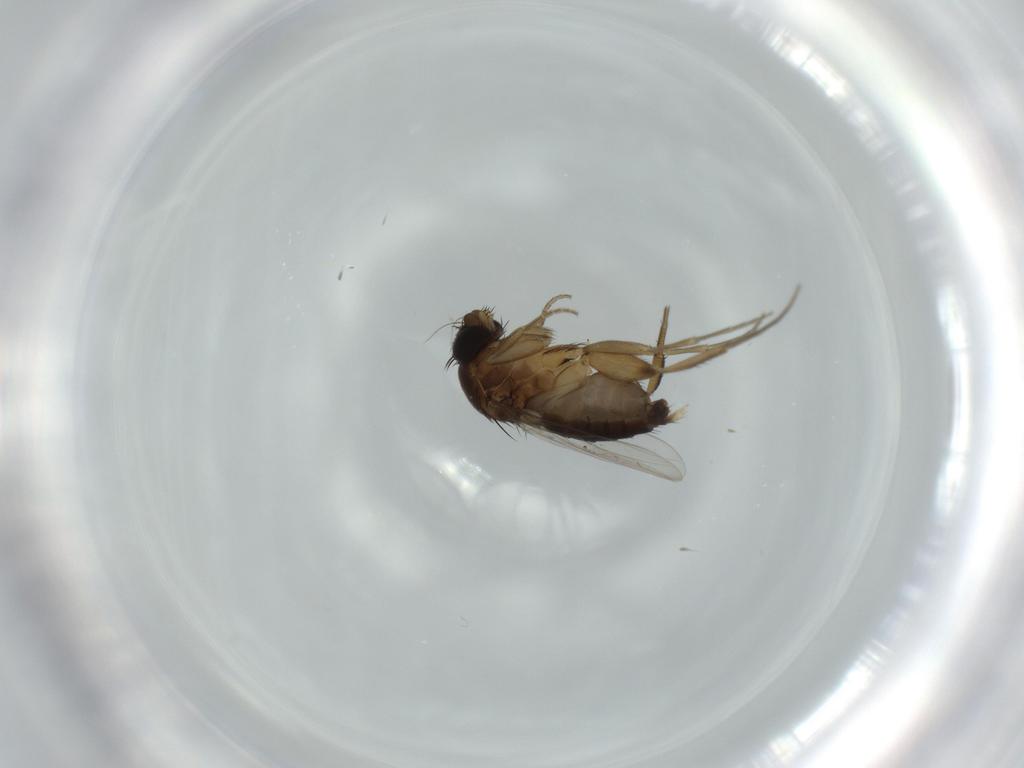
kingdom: Animalia
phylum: Arthropoda
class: Insecta
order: Diptera
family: Phoridae
